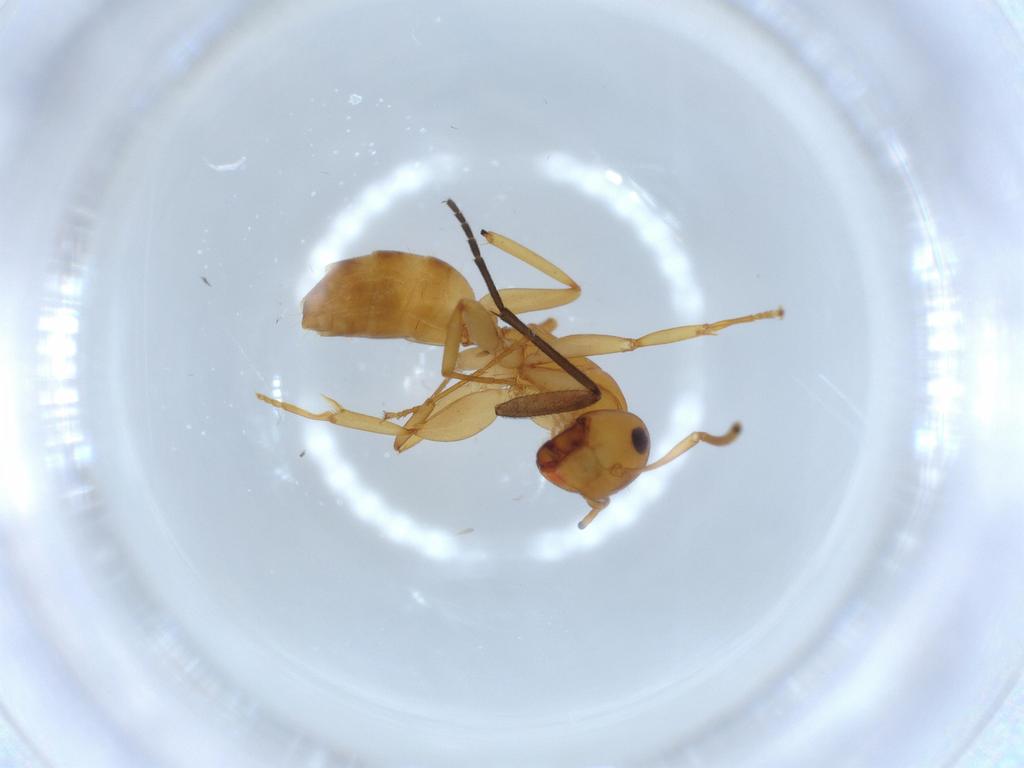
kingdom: Animalia
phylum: Arthropoda
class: Insecta
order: Hymenoptera
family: Formicidae
